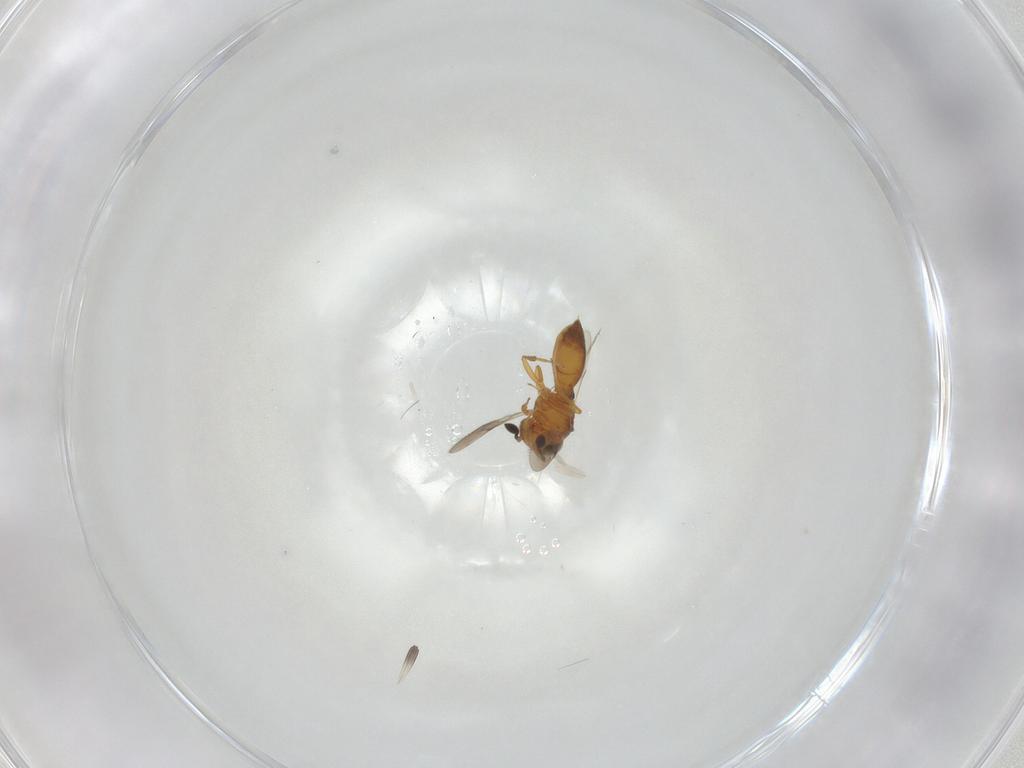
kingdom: Animalia
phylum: Arthropoda
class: Insecta
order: Hymenoptera
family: Scelionidae
